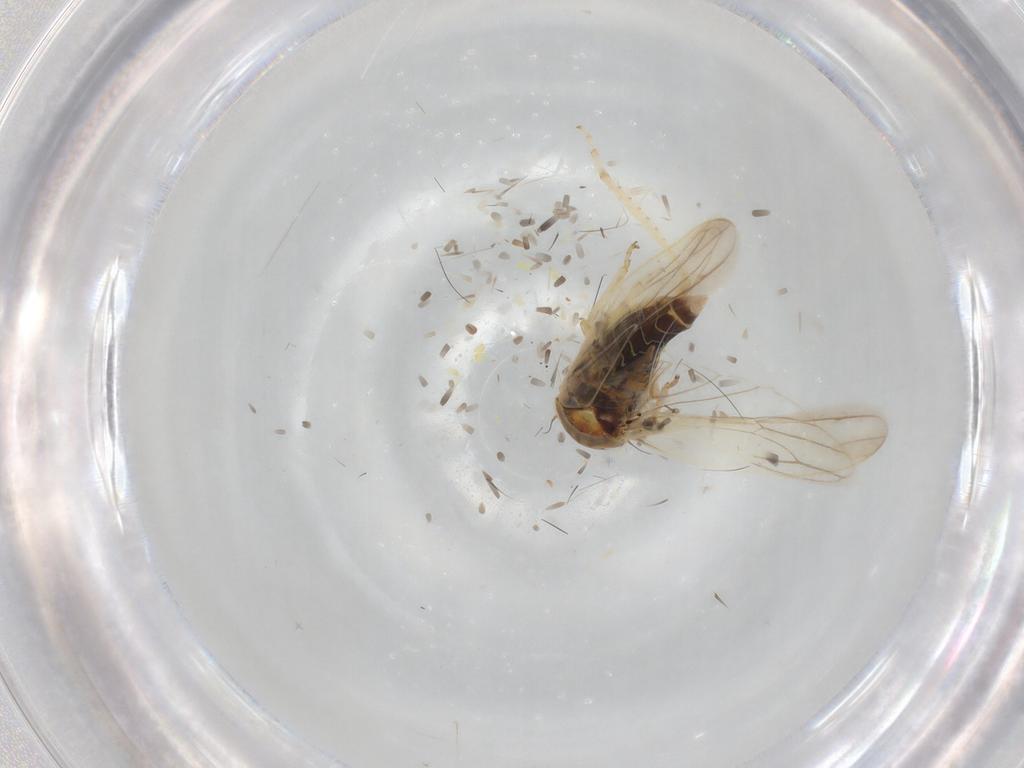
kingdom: Animalia
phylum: Arthropoda
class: Insecta
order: Hemiptera
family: Cicadellidae
